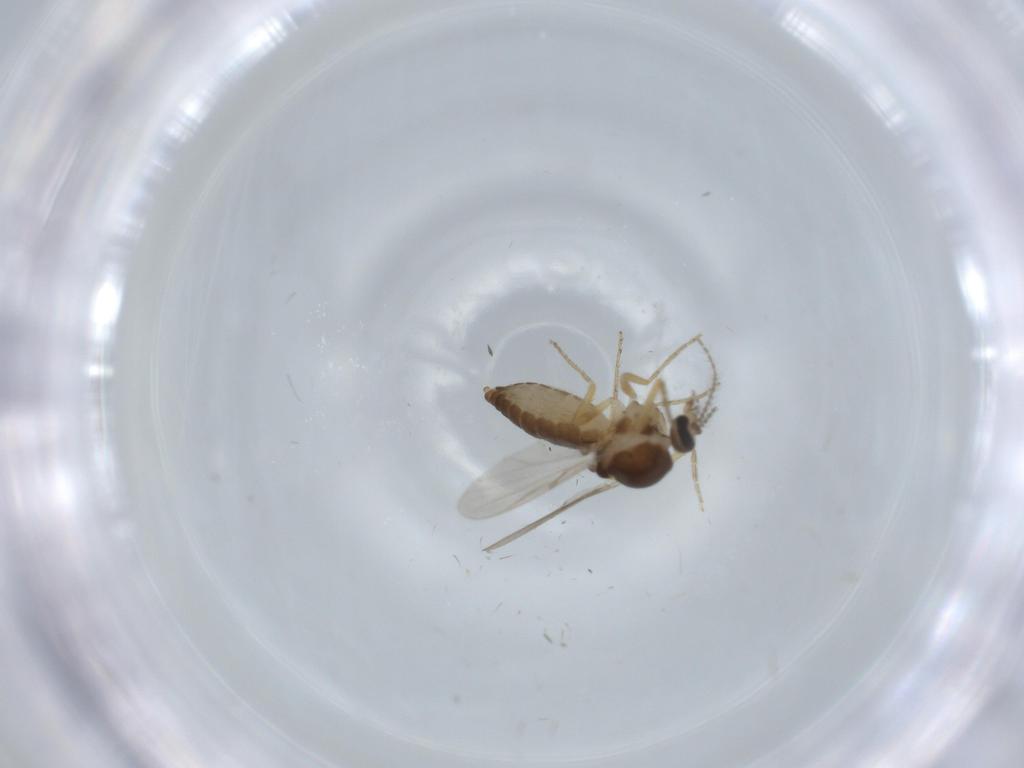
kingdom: Animalia
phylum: Arthropoda
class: Insecta
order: Diptera
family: Ceratopogonidae
